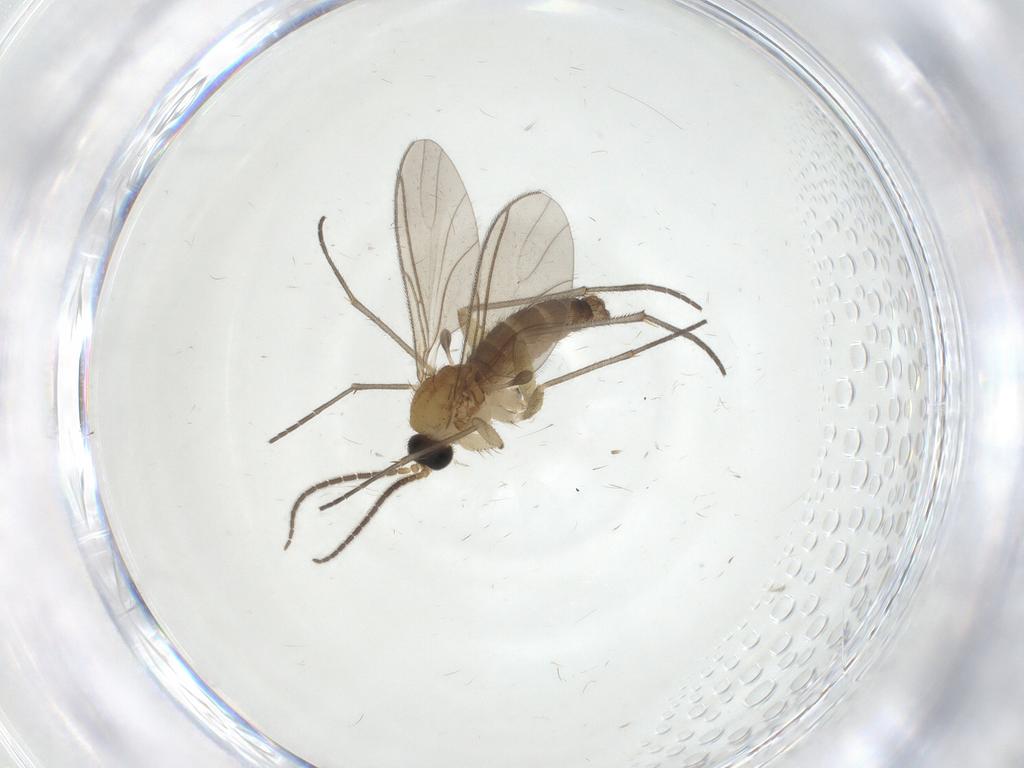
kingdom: Animalia
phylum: Arthropoda
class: Insecta
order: Diptera
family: Sciaridae
